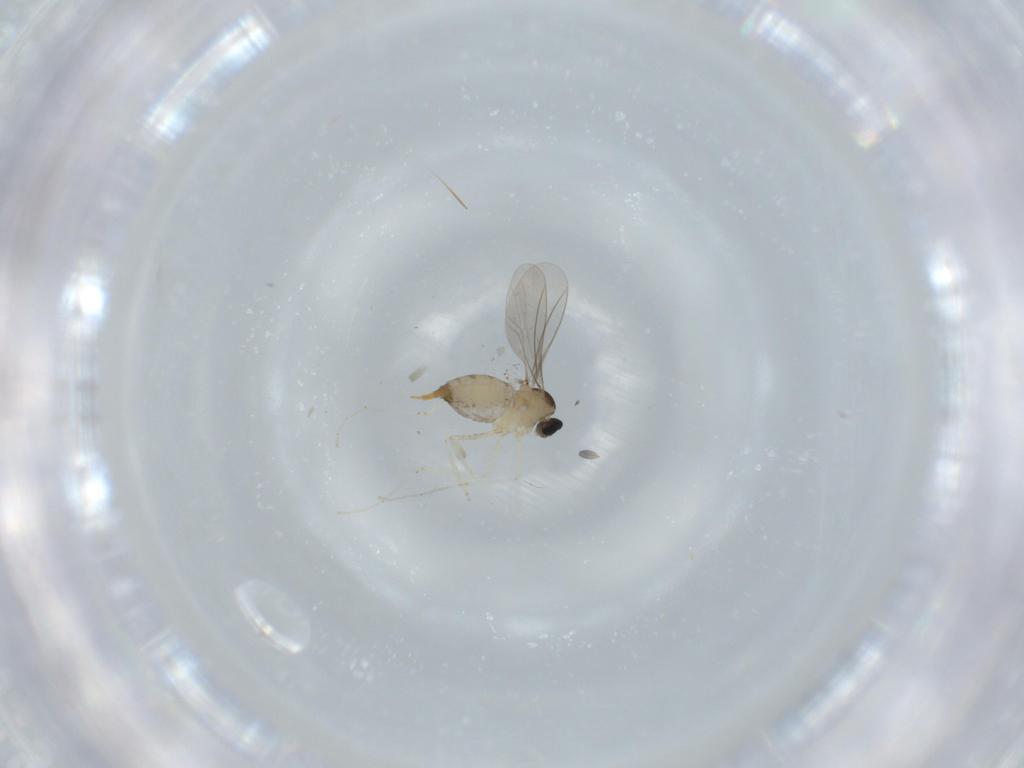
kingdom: Animalia
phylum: Arthropoda
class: Insecta
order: Diptera
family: Cecidomyiidae
